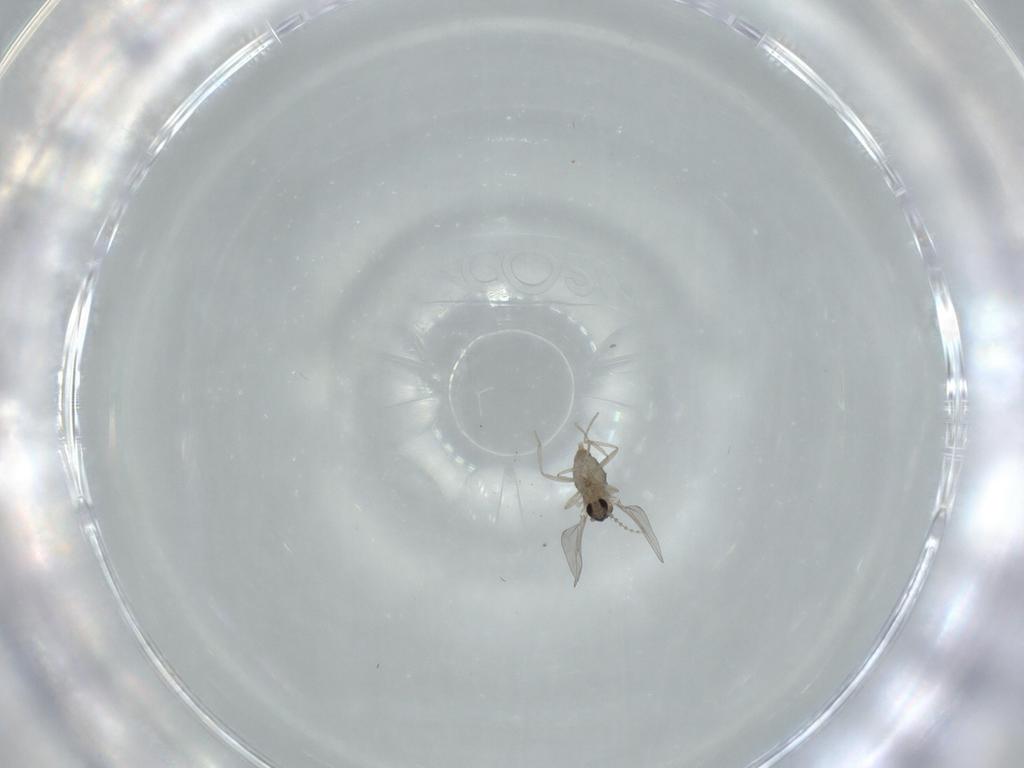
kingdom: Animalia
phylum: Arthropoda
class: Insecta
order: Diptera
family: Cecidomyiidae
